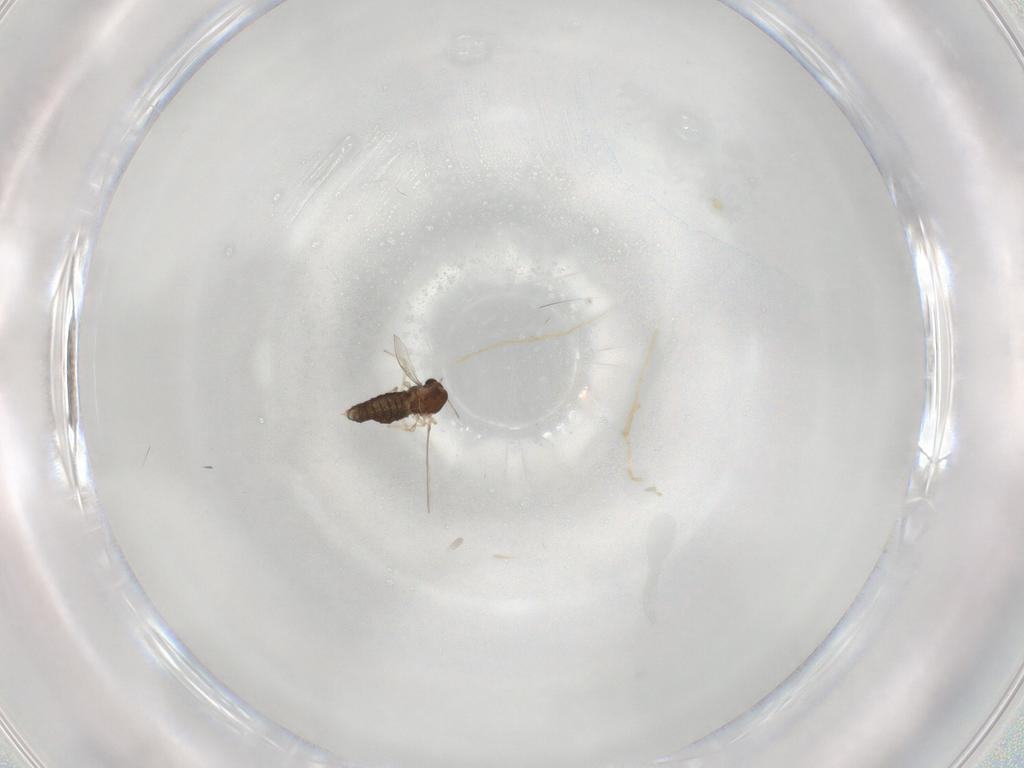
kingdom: Animalia
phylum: Arthropoda
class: Insecta
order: Diptera
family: Chironomidae
